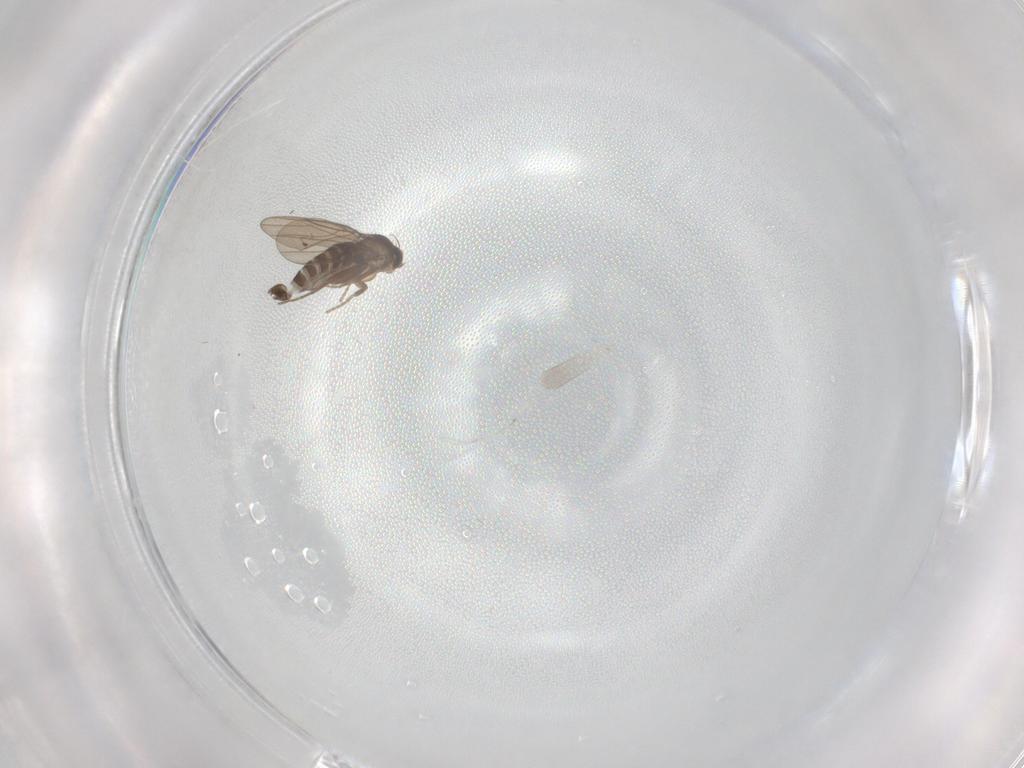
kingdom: Animalia
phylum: Arthropoda
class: Insecta
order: Diptera
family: Phoridae
